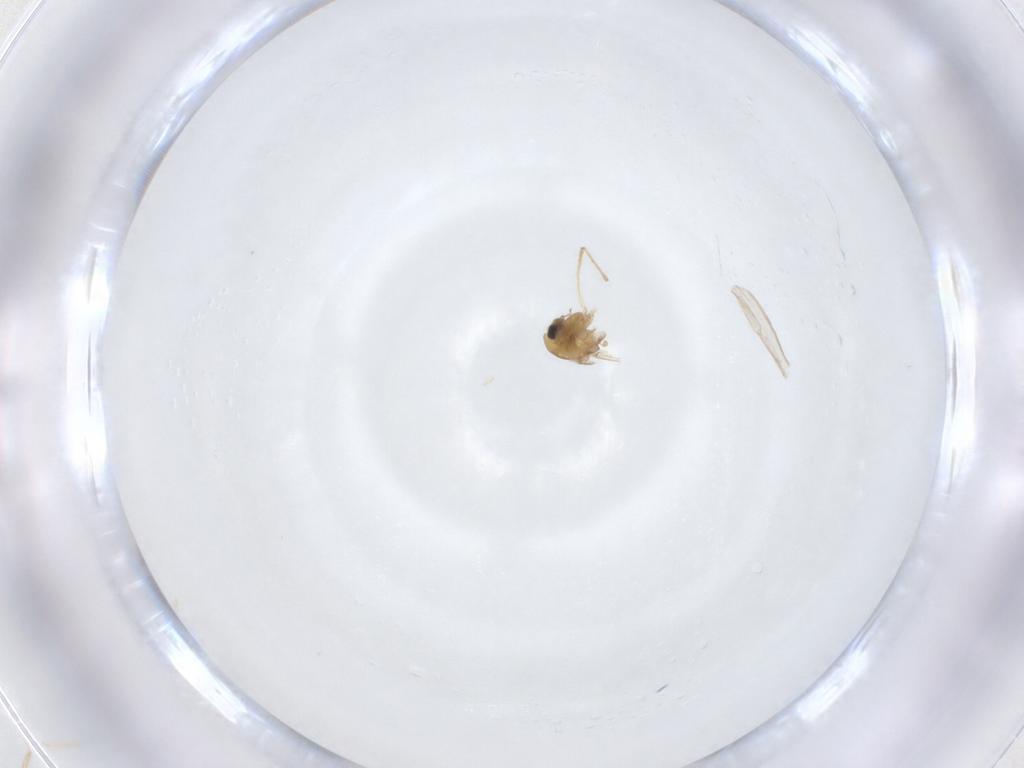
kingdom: Animalia
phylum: Arthropoda
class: Insecta
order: Diptera
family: Chironomidae
